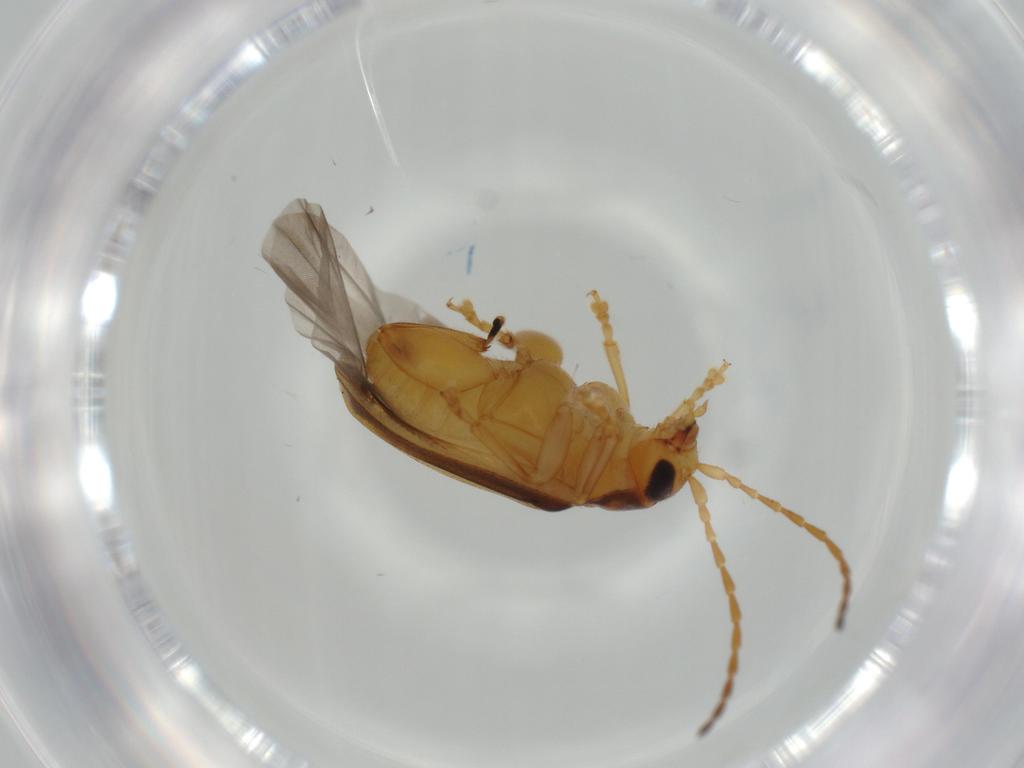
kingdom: Animalia
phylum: Arthropoda
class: Insecta
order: Coleoptera
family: Chrysomelidae
